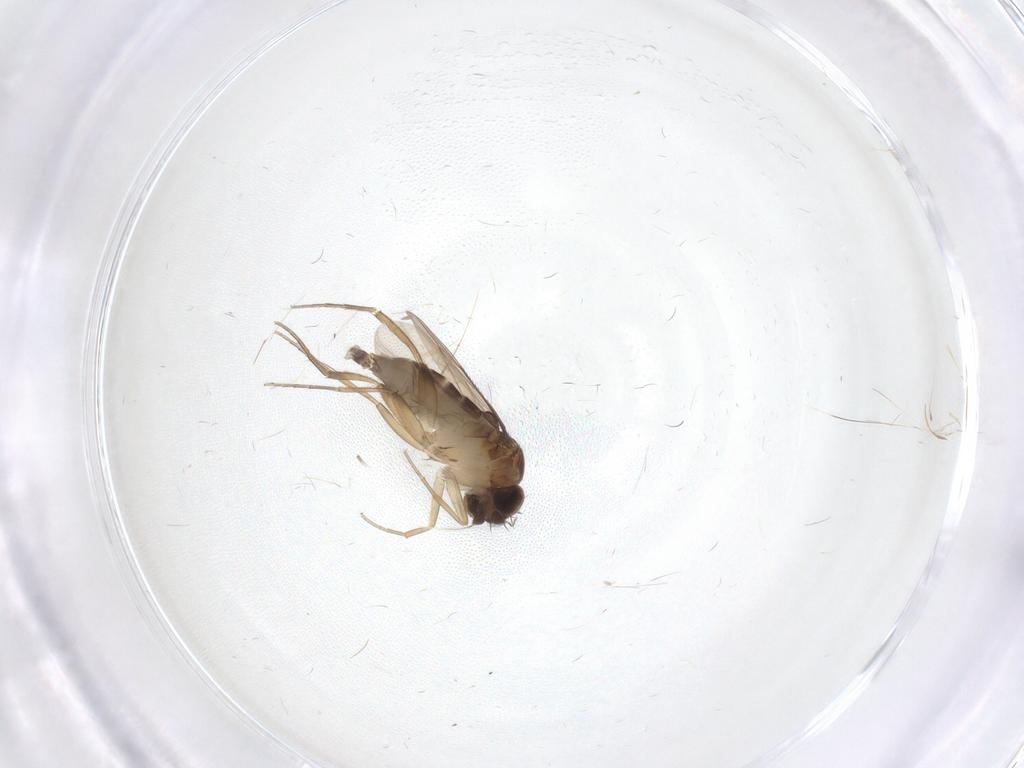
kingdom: Animalia
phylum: Arthropoda
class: Insecta
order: Diptera
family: Phoridae
